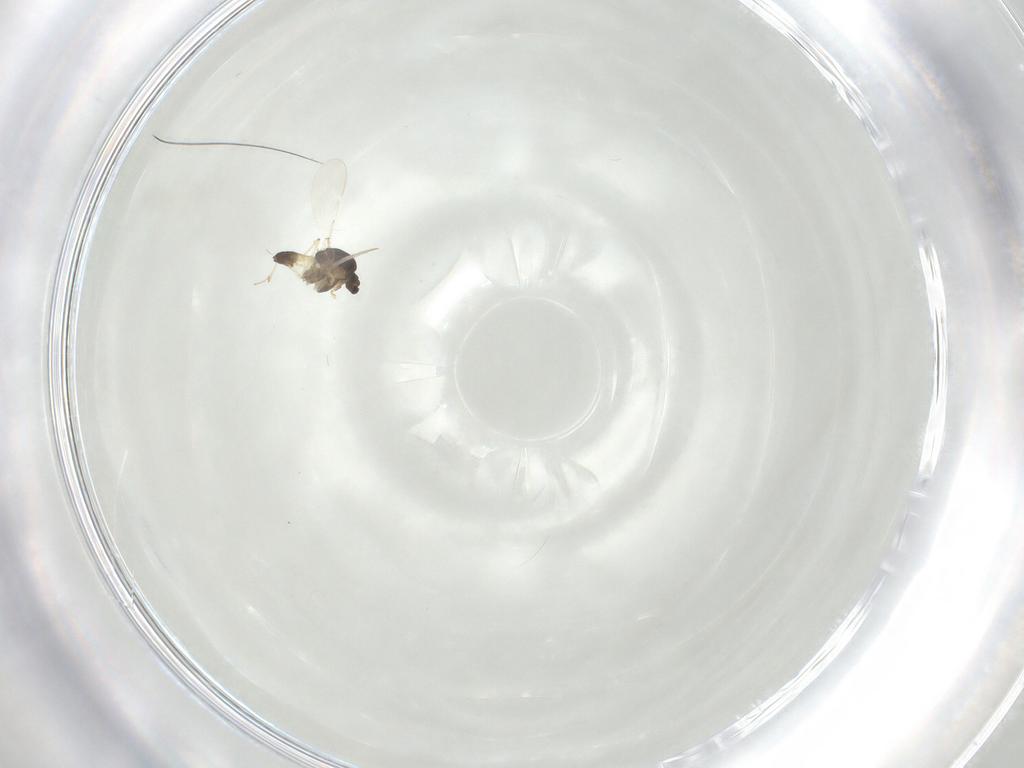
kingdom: Animalia
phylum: Arthropoda
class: Insecta
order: Diptera
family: Chironomidae
